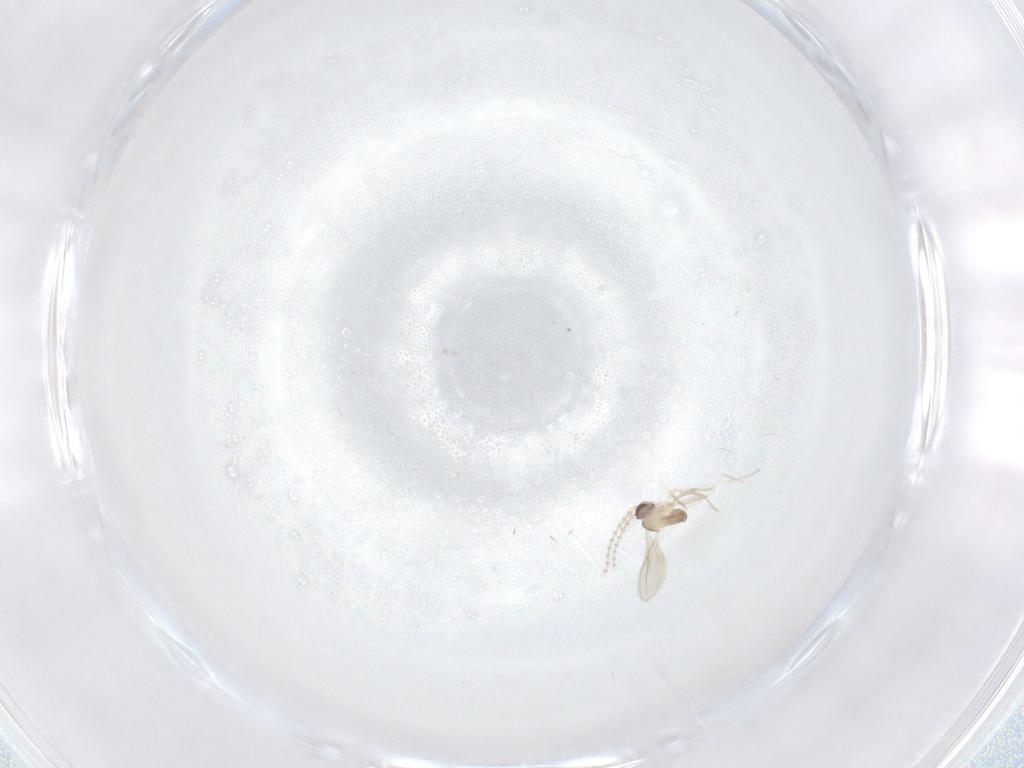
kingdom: Animalia
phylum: Arthropoda
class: Insecta
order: Diptera
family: Cecidomyiidae
